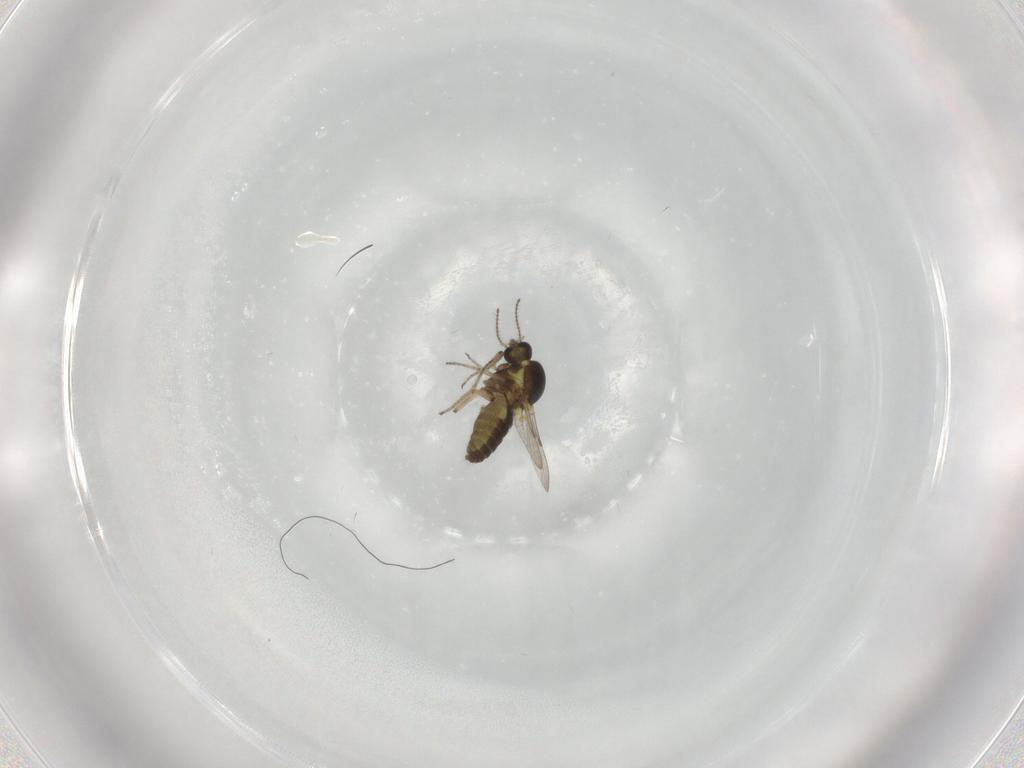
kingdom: Animalia
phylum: Arthropoda
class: Insecta
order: Diptera
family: Ceratopogonidae
